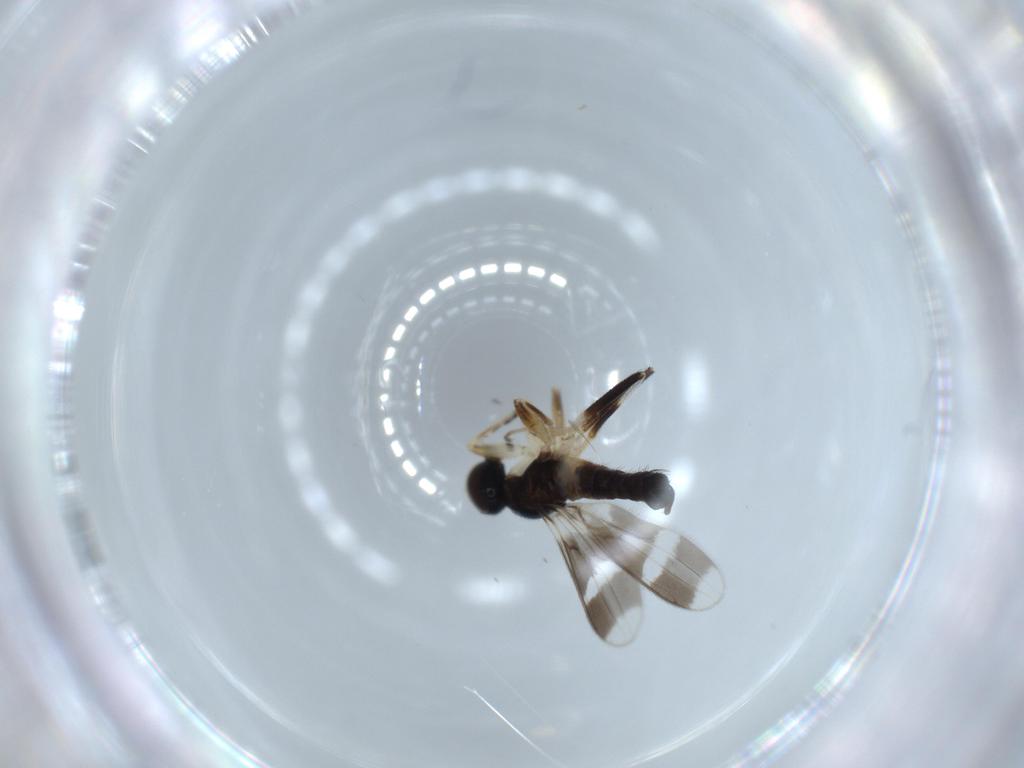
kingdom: Animalia
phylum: Arthropoda
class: Insecta
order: Diptera
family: Hybotidae
